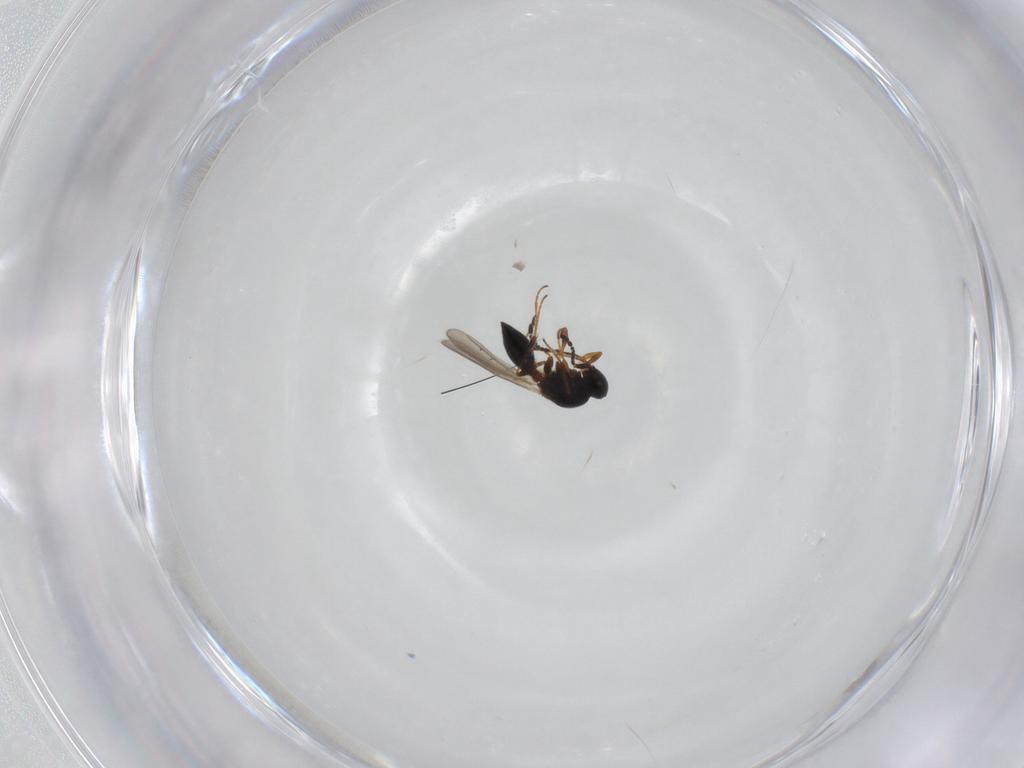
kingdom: Animalia
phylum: Arthropoda
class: Insecta
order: Hymenoptera
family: Platygastridae
